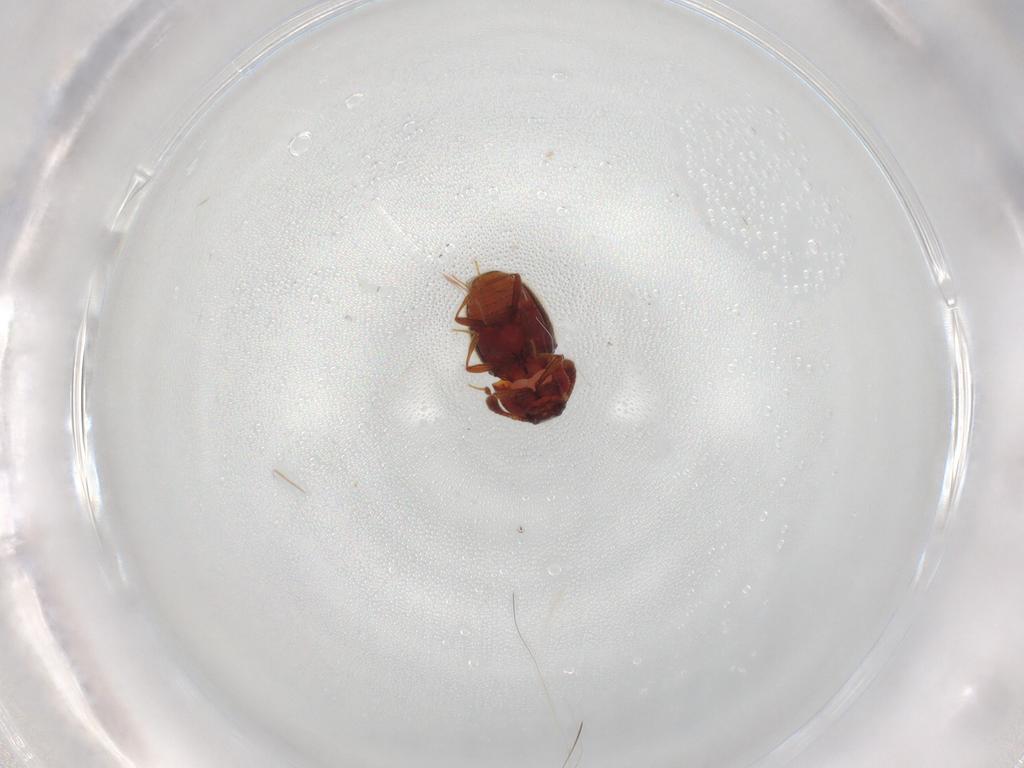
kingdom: Animalia
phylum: Arthropoda
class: Insecta
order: Coleoptera
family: Staphylinidae
